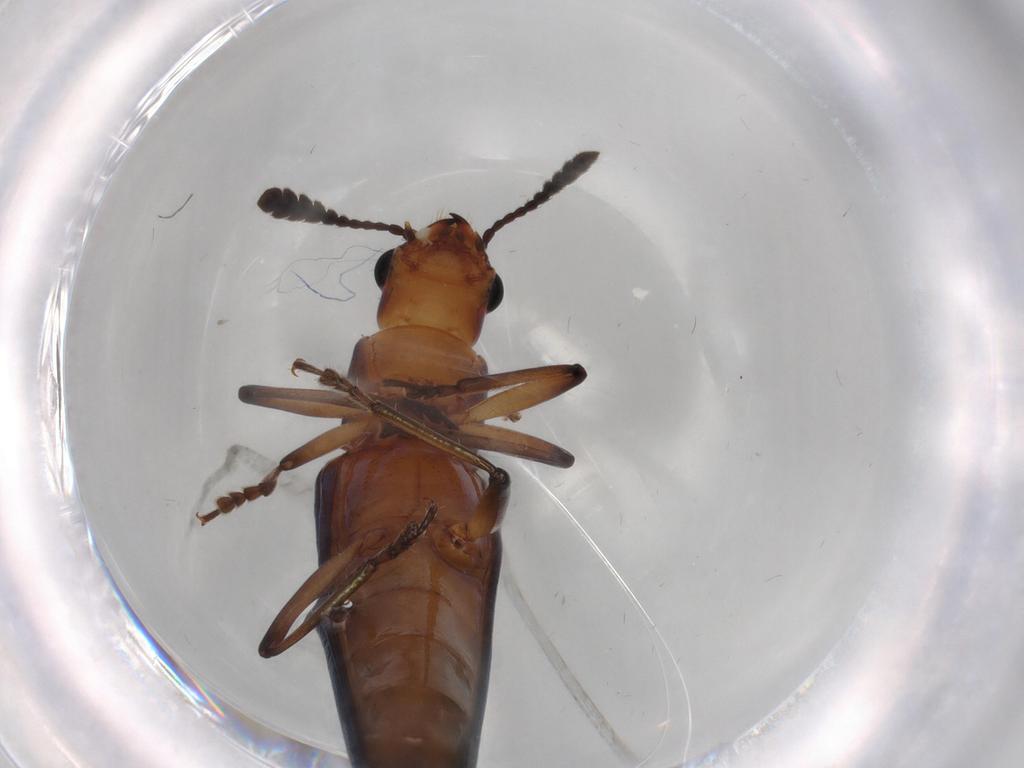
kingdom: Animalia
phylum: Arthropoda
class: Insecta
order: Coleoptera
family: Erotylidae
